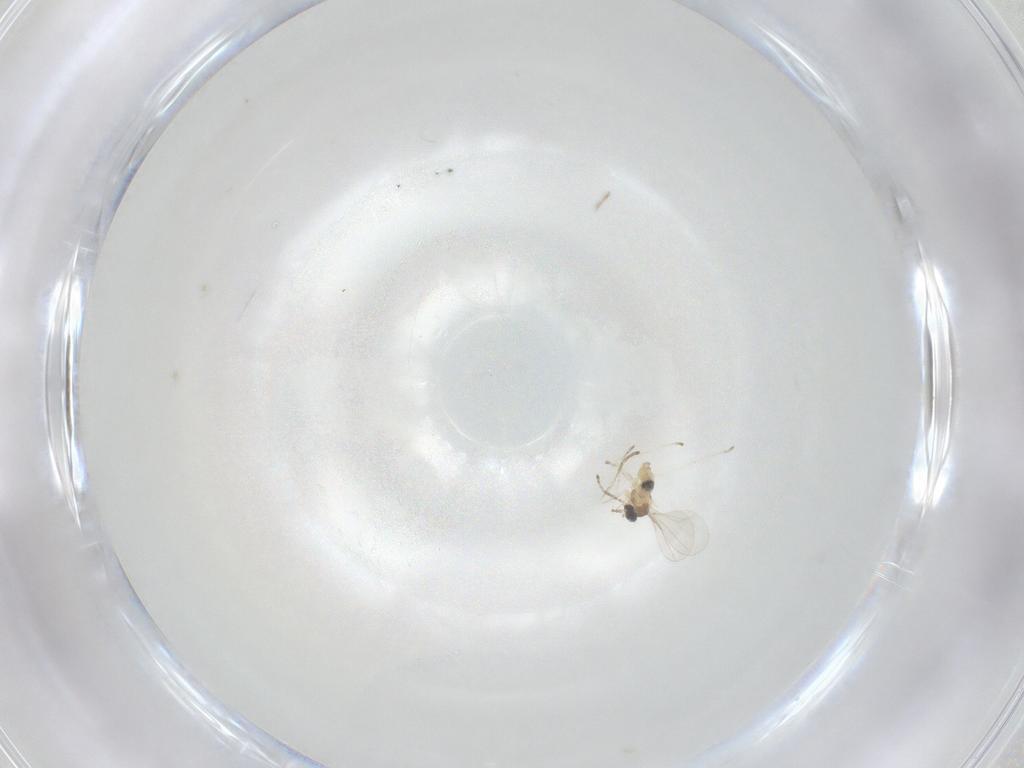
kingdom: Animalia
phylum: Arthropoda
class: Insecta
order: Diptera
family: Cecidomyiidae
